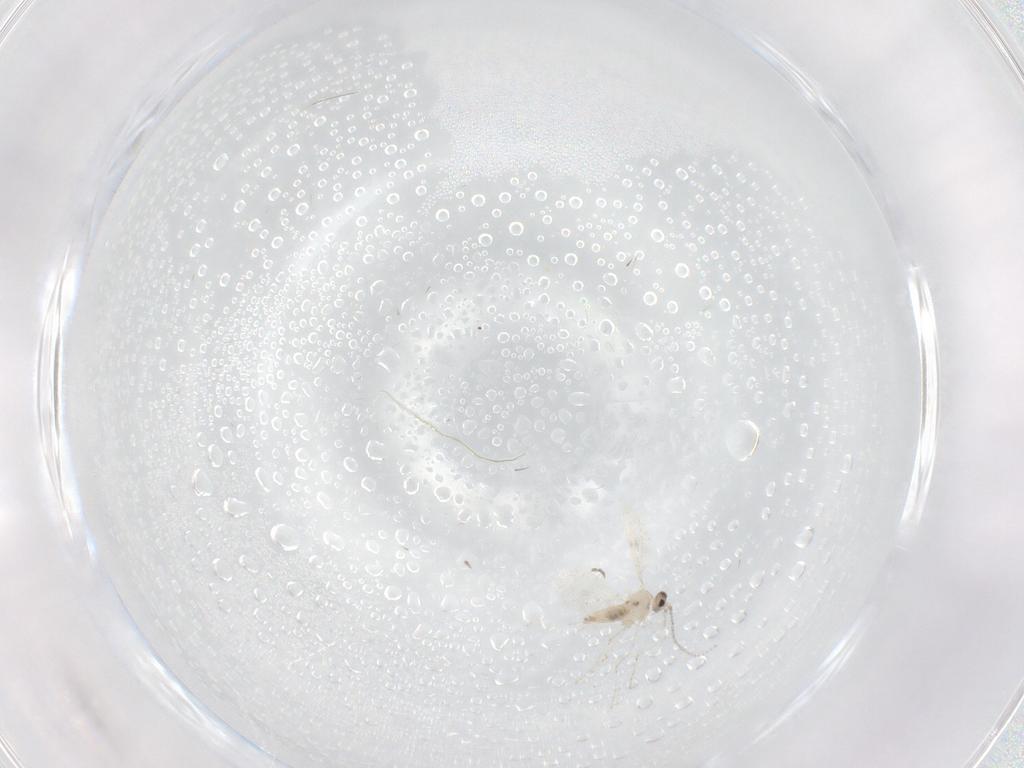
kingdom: Animalia
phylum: Arthropoda
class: Insecta
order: Diptera
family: Cecidomyiidae
